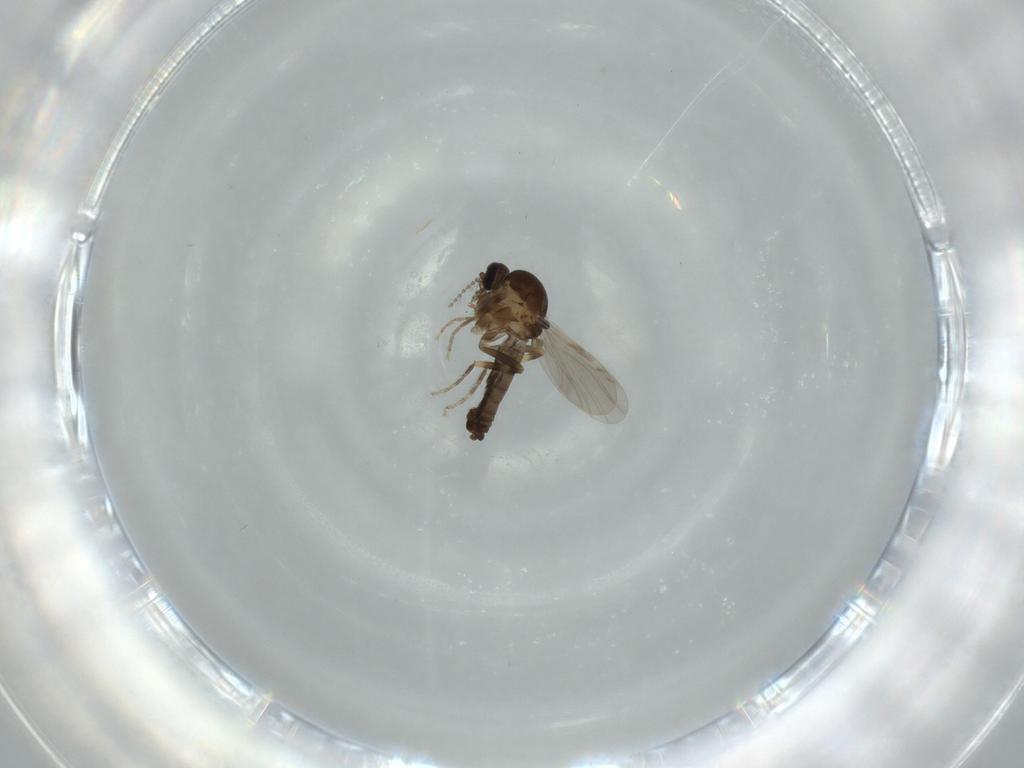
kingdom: Animalia
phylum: Arthropoda
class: Insecta
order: Diptera
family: Ceratopogonidae
